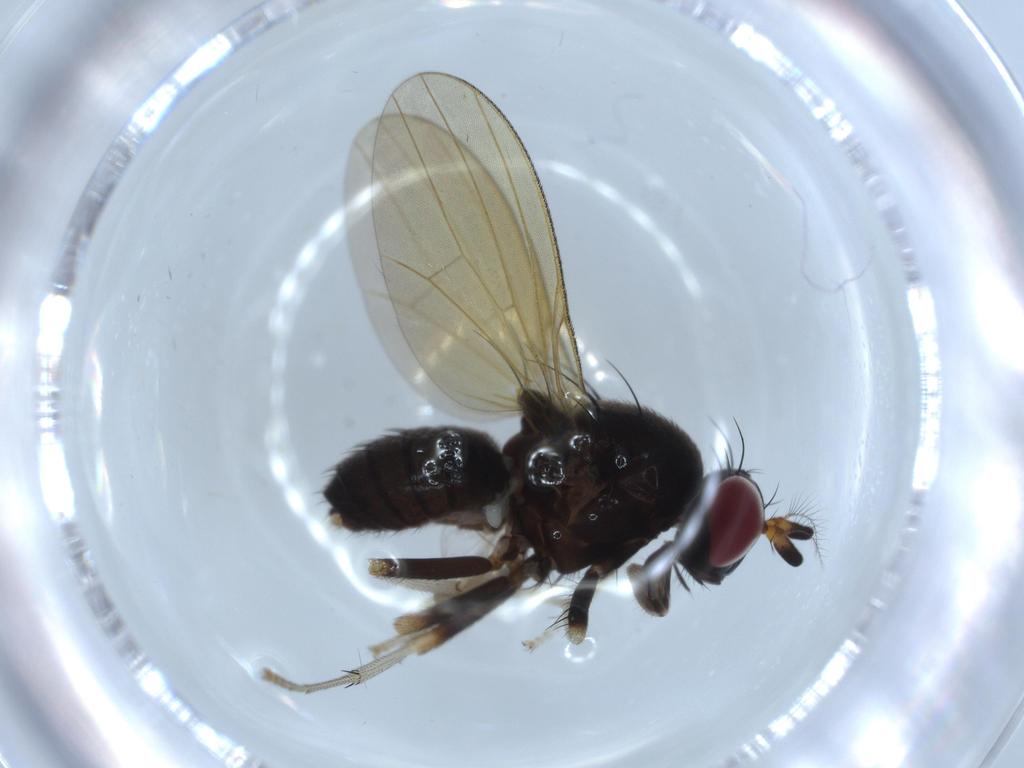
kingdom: Animalia
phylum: Arthropoda
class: Insecta
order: Diptera
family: Cecidomyiidae
